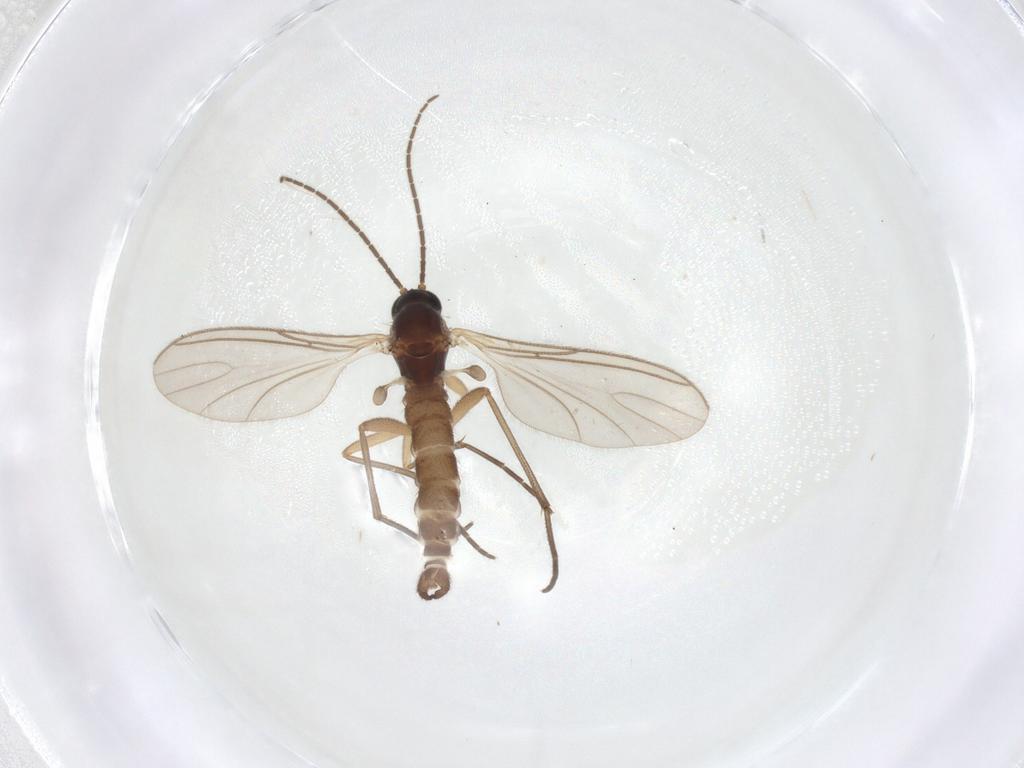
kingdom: Animalia
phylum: Arthropoda
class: Insecta
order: Diptera
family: Sciaridae
